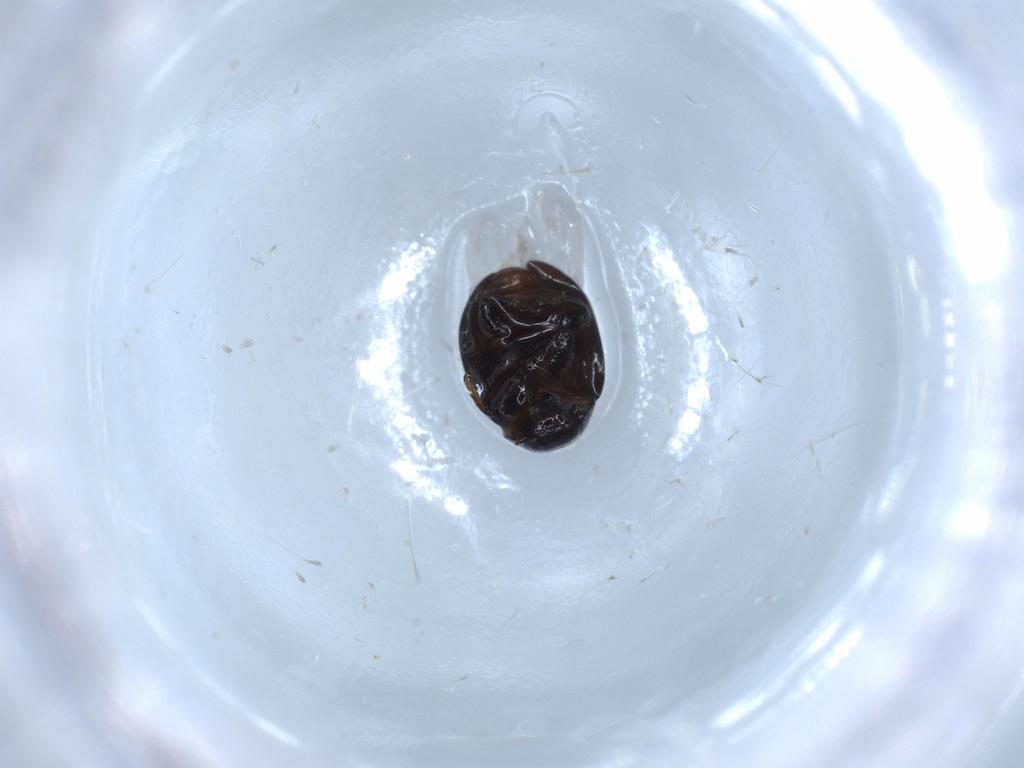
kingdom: Animalia
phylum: Arthropoda
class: Insecta
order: Coleoptera
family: Coccinellidae
